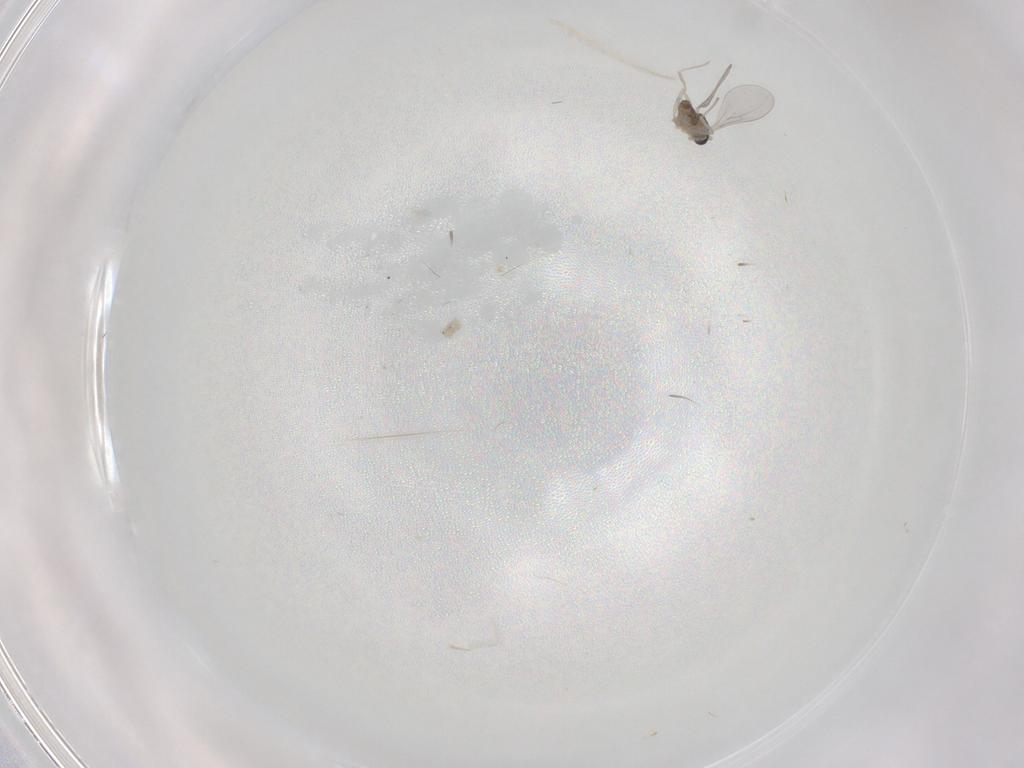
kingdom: Animalia
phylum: Arthropoda
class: Insecta
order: Diptera
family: Cecidomyiidae
